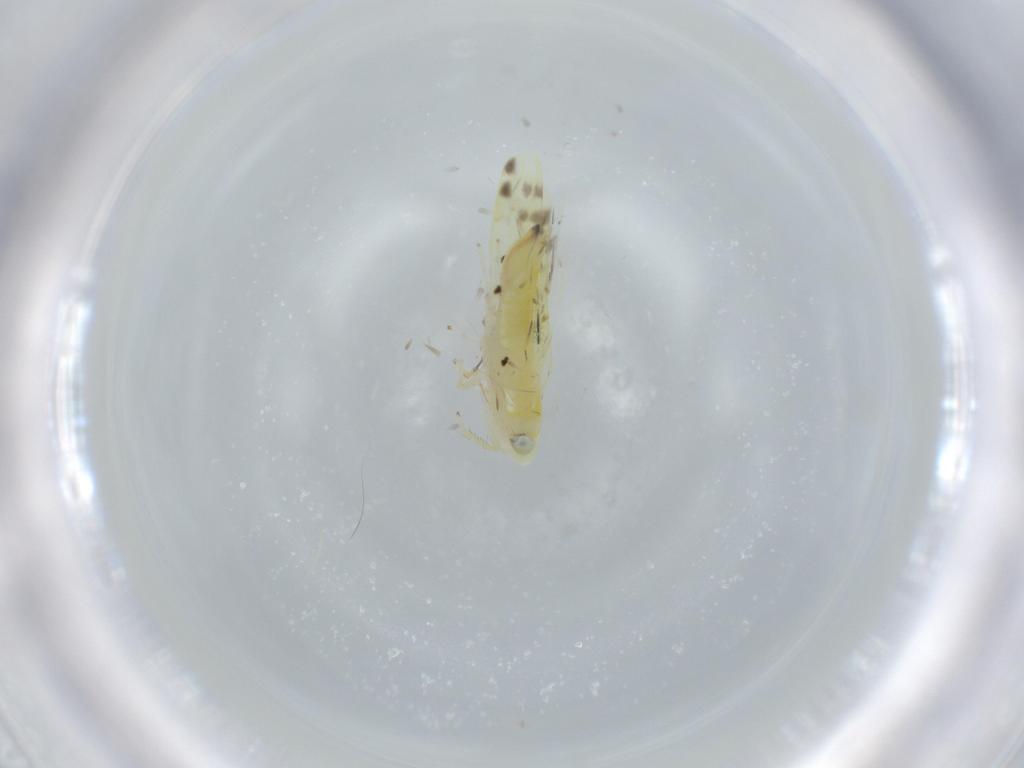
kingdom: Animalia
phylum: Arthropoda
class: Insecta
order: Hemiptera
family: Cicadellidae
